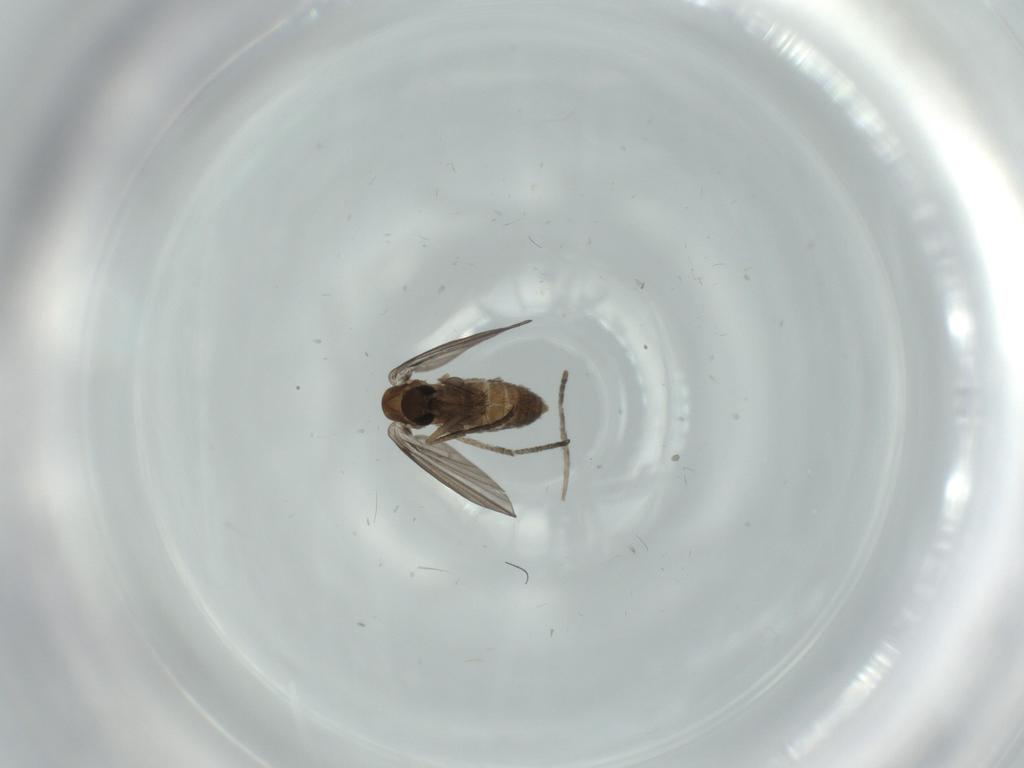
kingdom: Animalia
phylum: Arthropoda
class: Insecta
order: Diptera
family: Psychodidae
